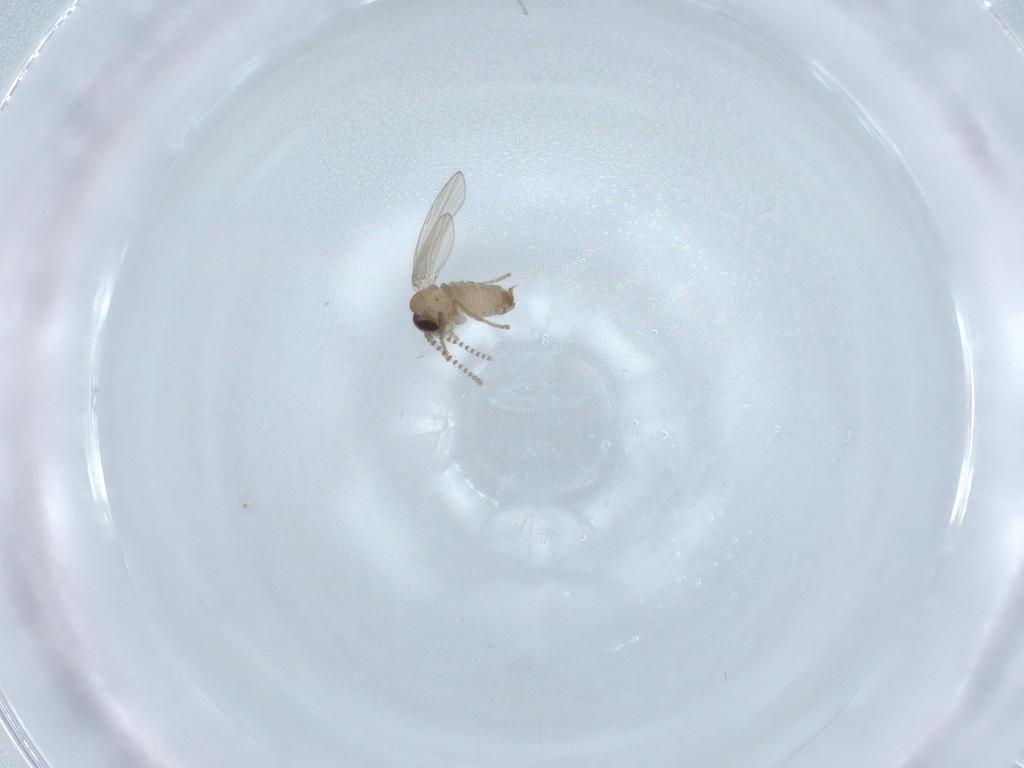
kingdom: Animalia
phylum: Arthropoda
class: Insecta
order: Diptera
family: Psychodidae
